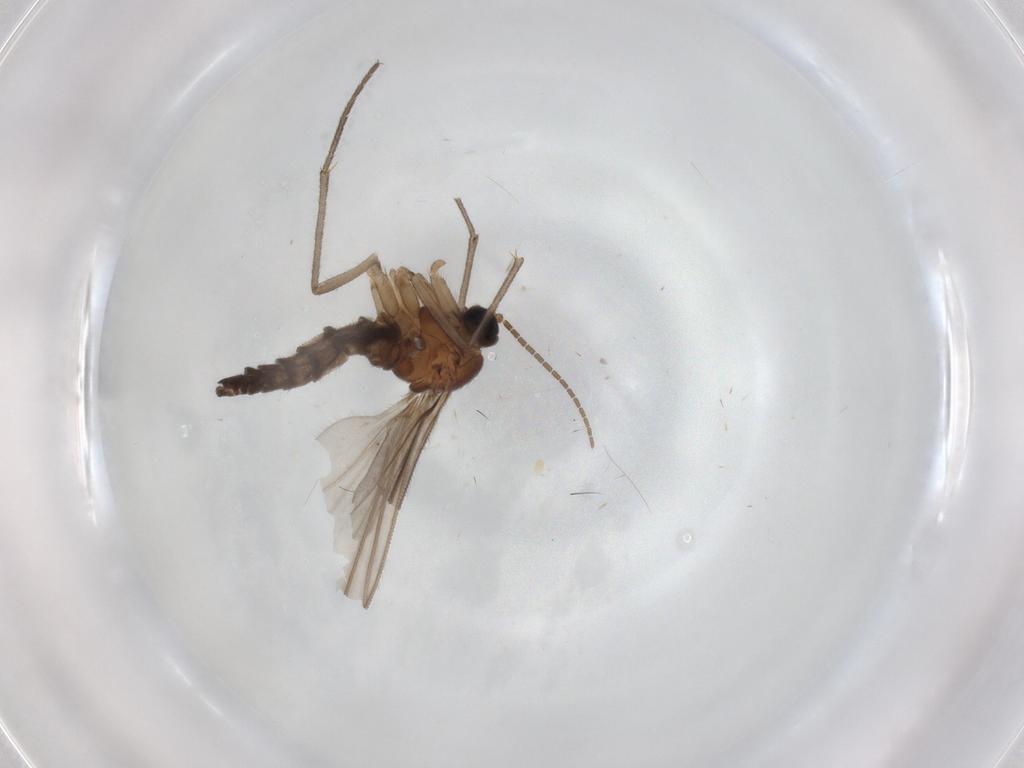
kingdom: Animalia
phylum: Arthropoda
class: Insecta
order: Diptera
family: Sciaridae
